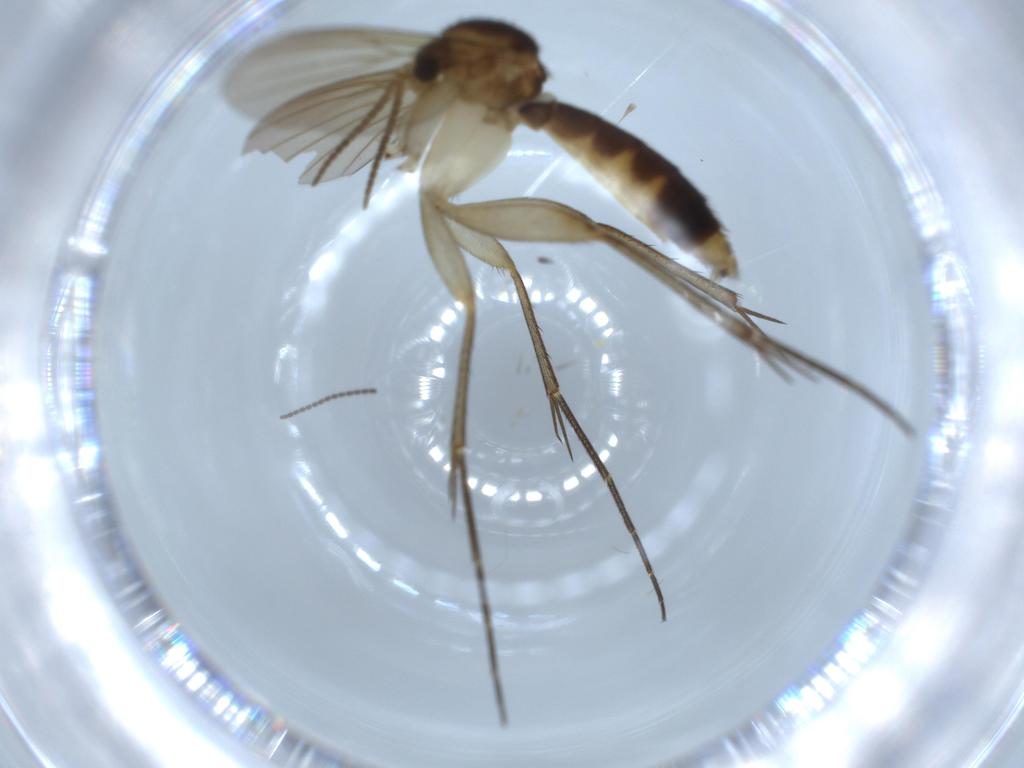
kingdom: Animalia
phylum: Arthropoda
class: Insecta
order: Diptera
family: Mycetophilidae
